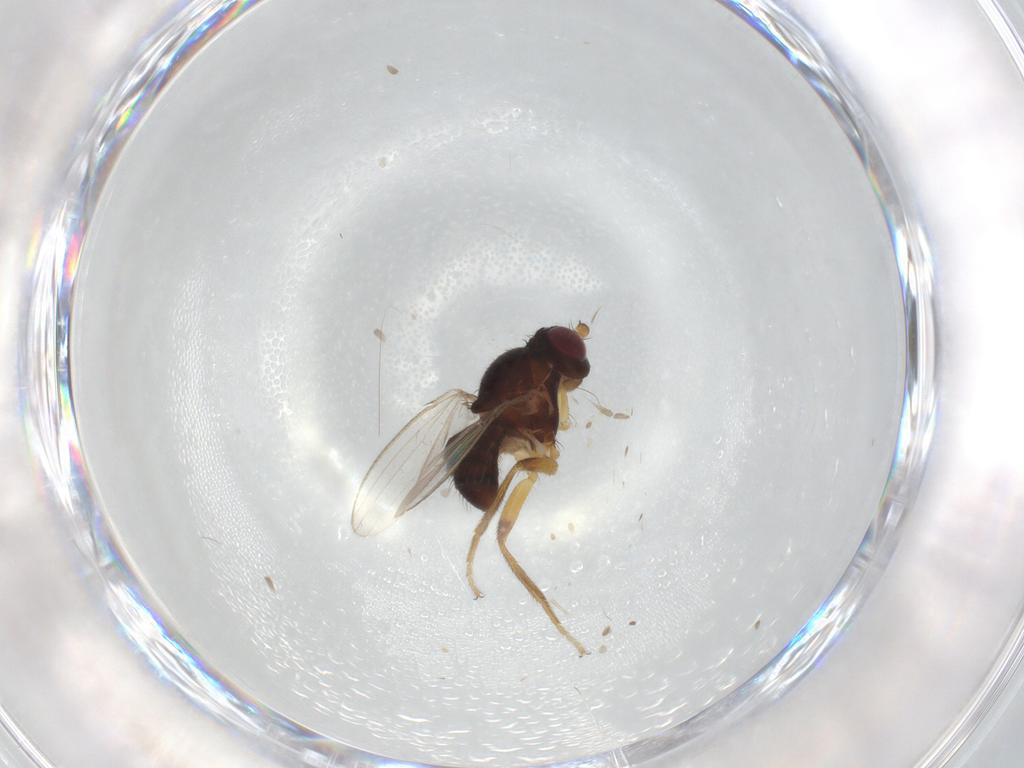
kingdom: Animalia
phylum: Arthropoda
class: Insecta
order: Diptera
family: Cypselosomatidae
